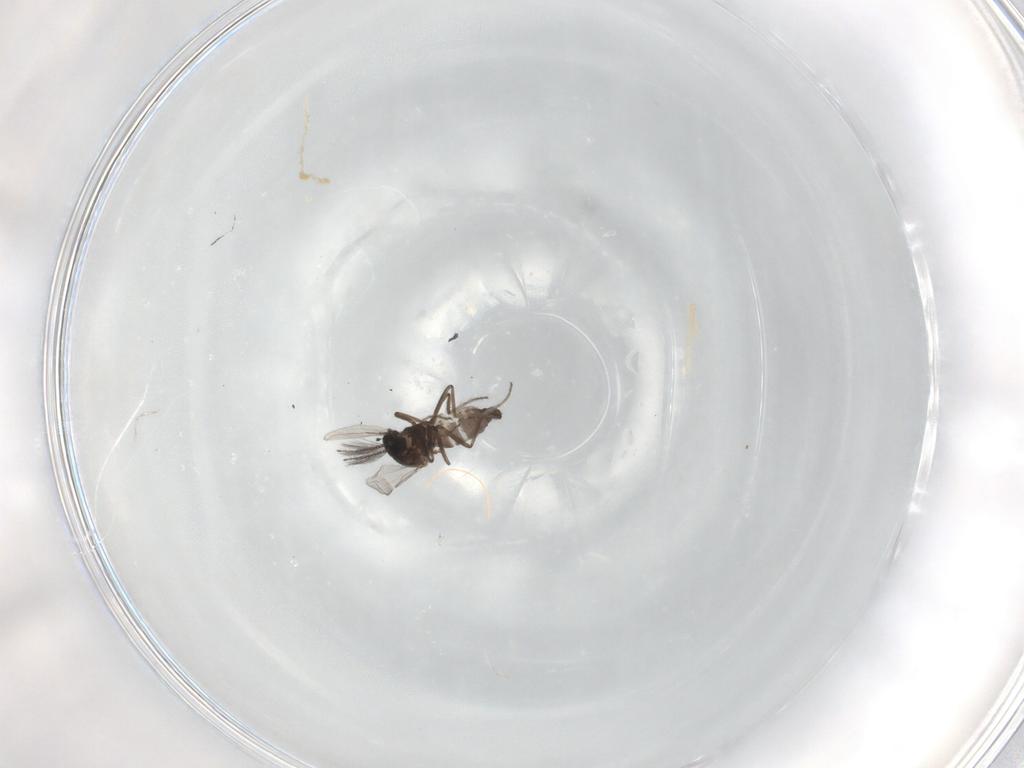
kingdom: Animalia
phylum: Arthropoda
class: Insecta
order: Diptera
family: Ceratopogonidae
